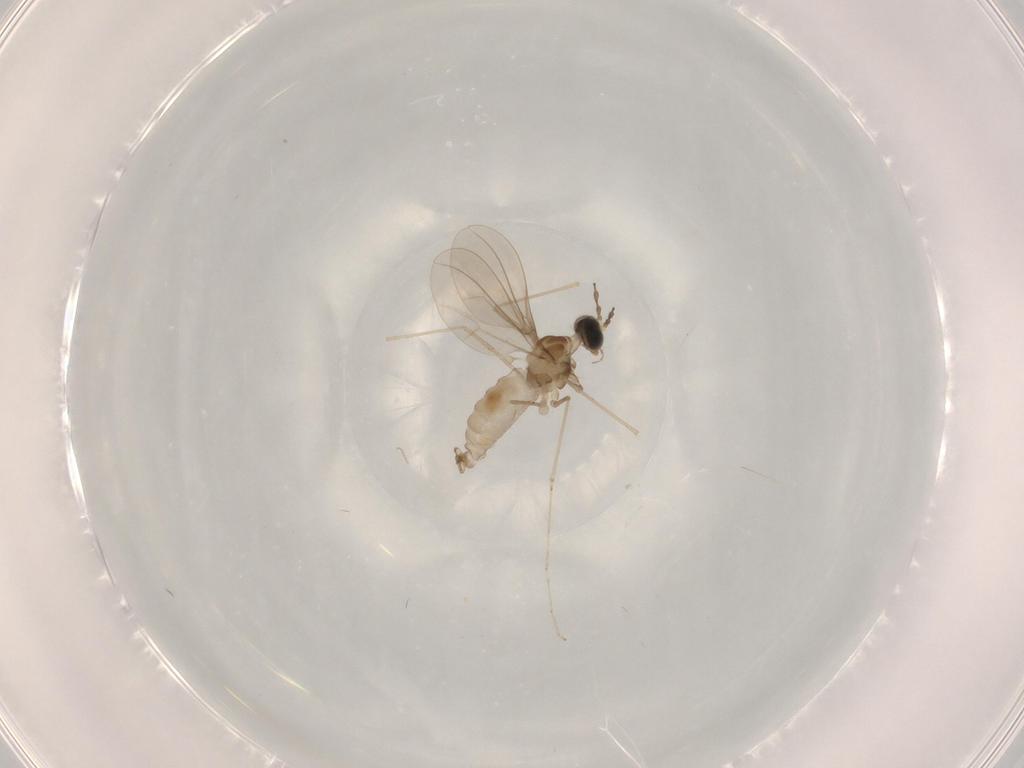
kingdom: Animalia
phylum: Arthropoda
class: Insecta
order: Diptera
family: Cecidomyiidae
